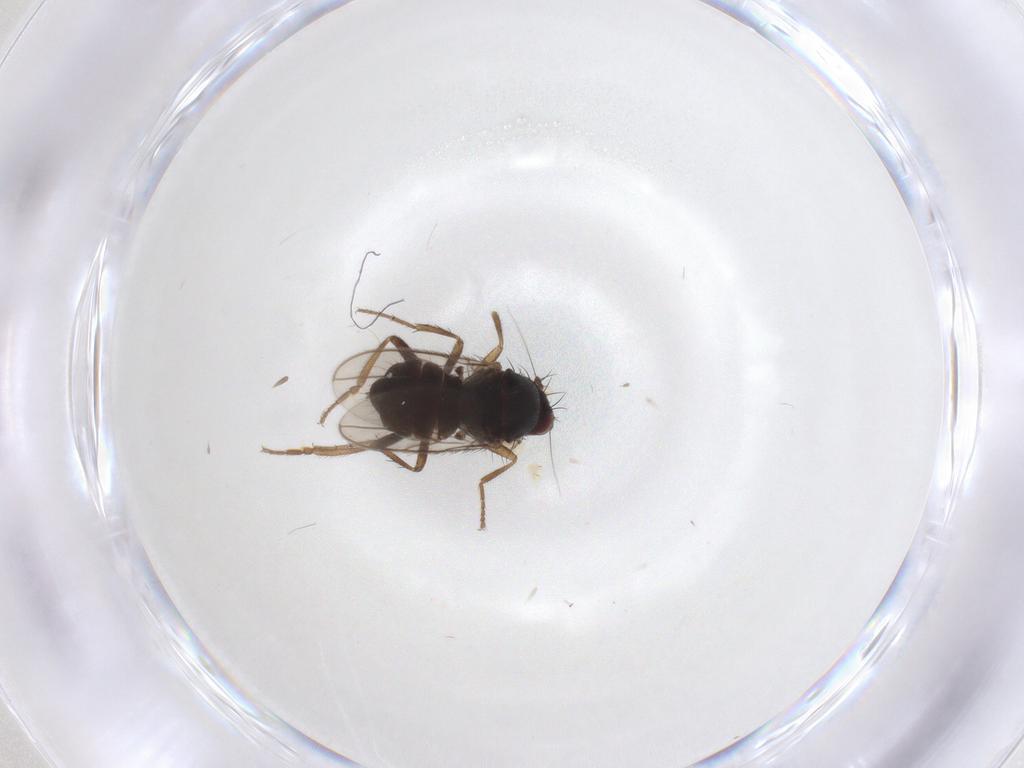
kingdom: Animalia
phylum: Arthropoda
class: Insecta
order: Diptera
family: Sphaeroceridae
